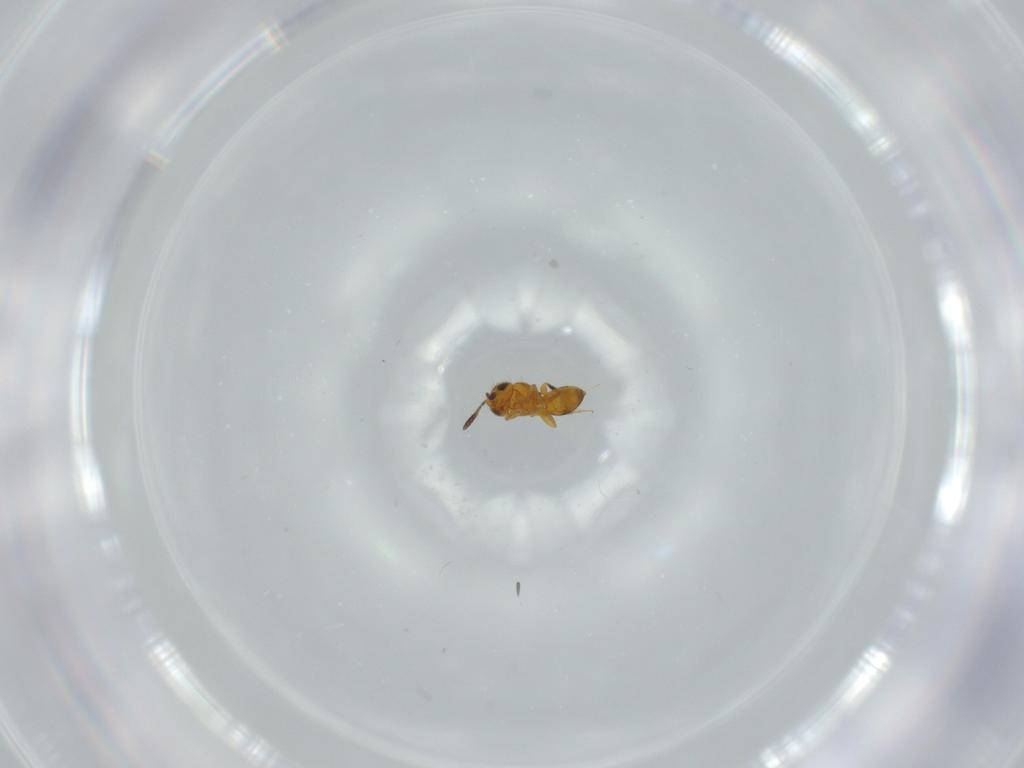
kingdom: Animalia
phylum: Arthropoda
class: Insecta
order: Hymenoptera
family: Scelionidae
